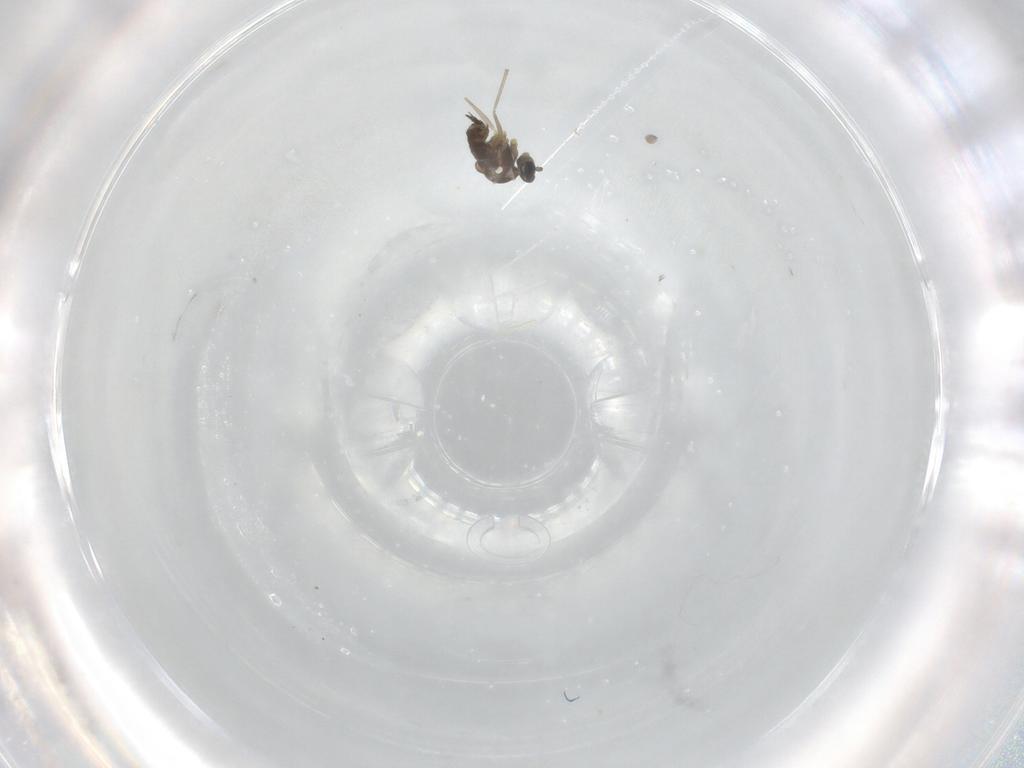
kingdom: Animalia
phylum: Arthropoda
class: Insecta
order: Diptera
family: Cecidomyiidae
